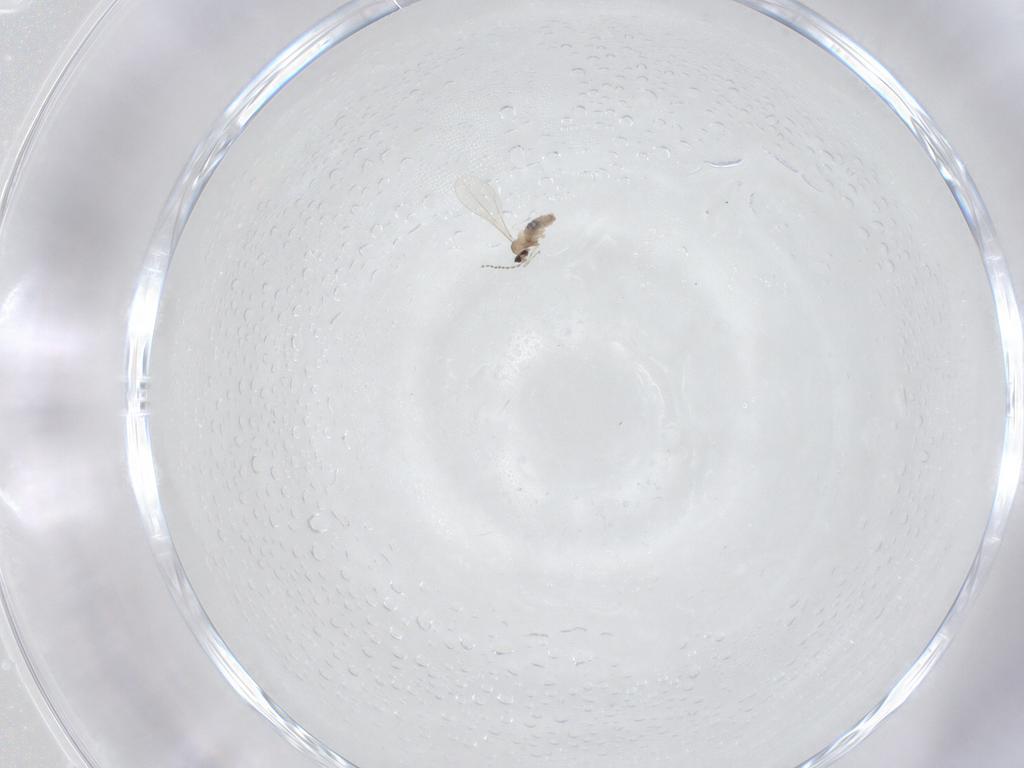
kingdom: Animalia
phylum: Arthropoda
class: Insecta
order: Diptera
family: Cecidomyiidae
